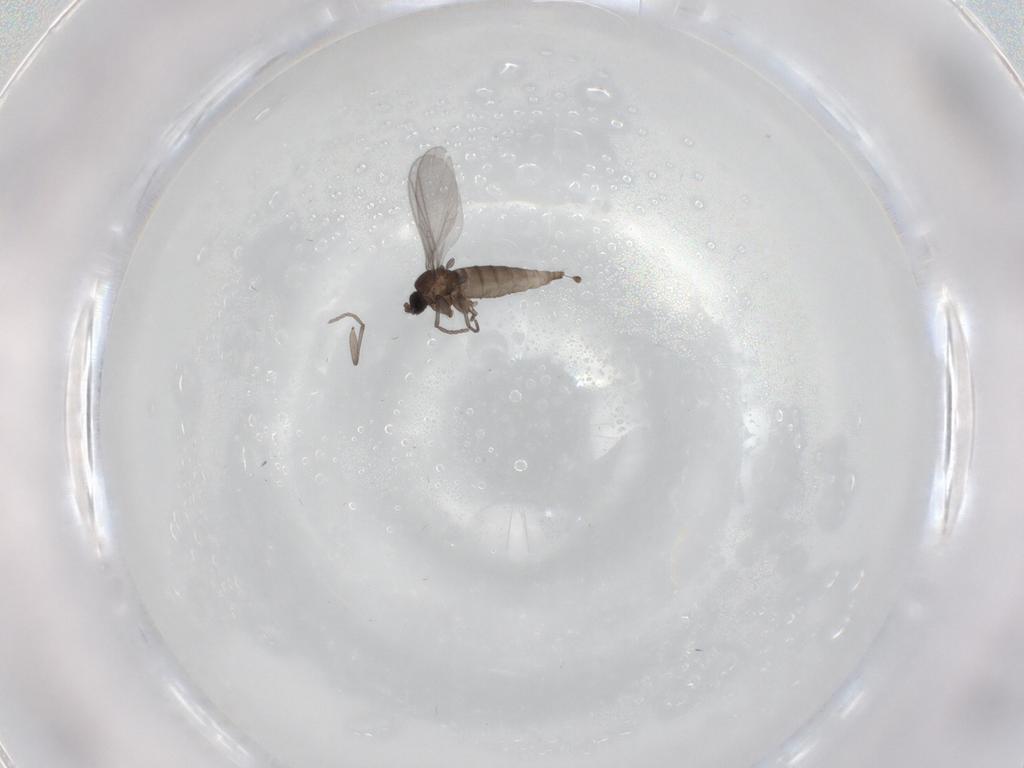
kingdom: Animalia
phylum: Arthropoda
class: Insecta
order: Diptera
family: Sciaridae
